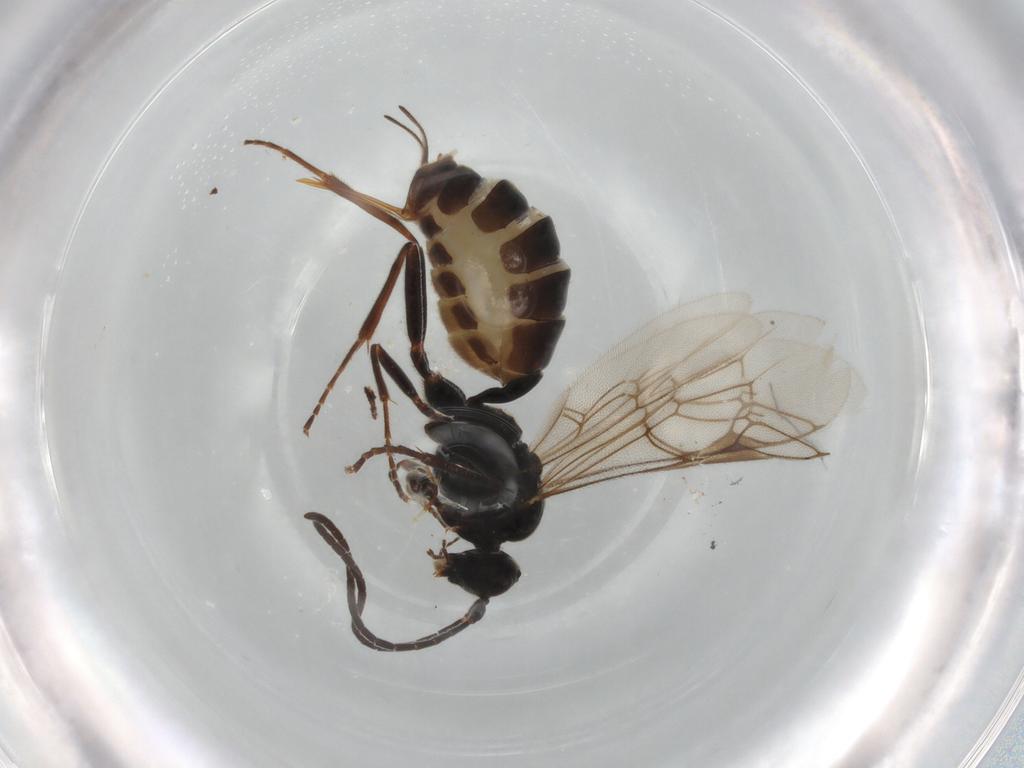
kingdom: Animalia
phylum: Arthropoda
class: Insecta
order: Hymenoptera
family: Ichneumonidae
